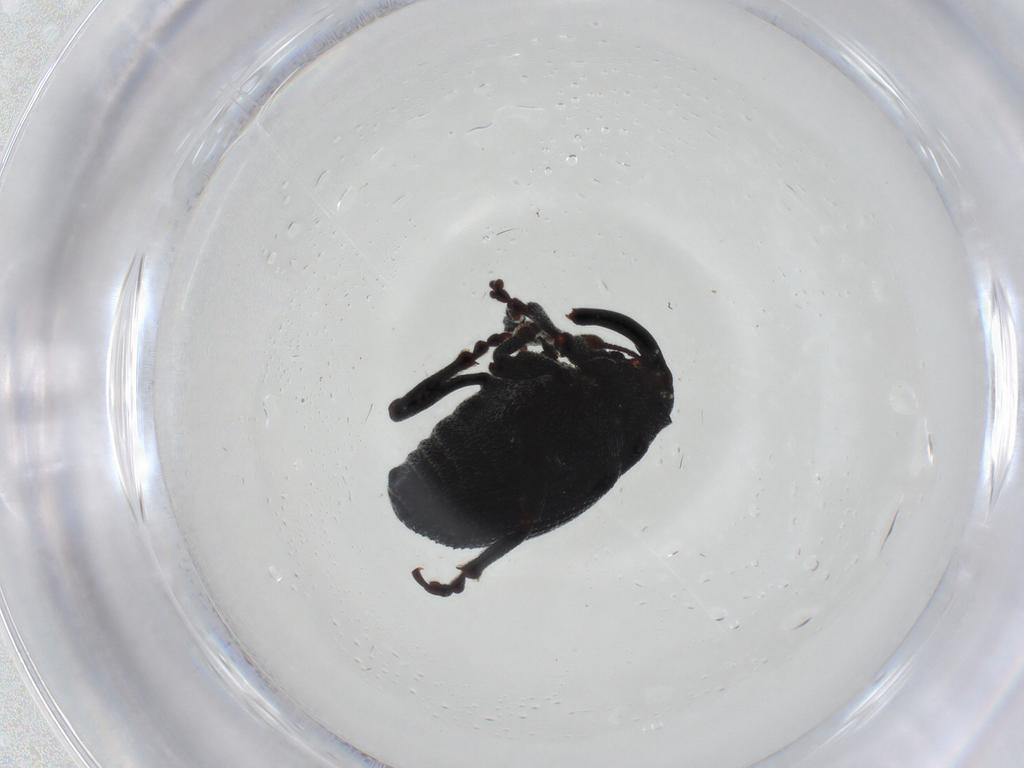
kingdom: Animalia
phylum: Arthropoda
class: Insecta
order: Coleoptera
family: Curculionidae
